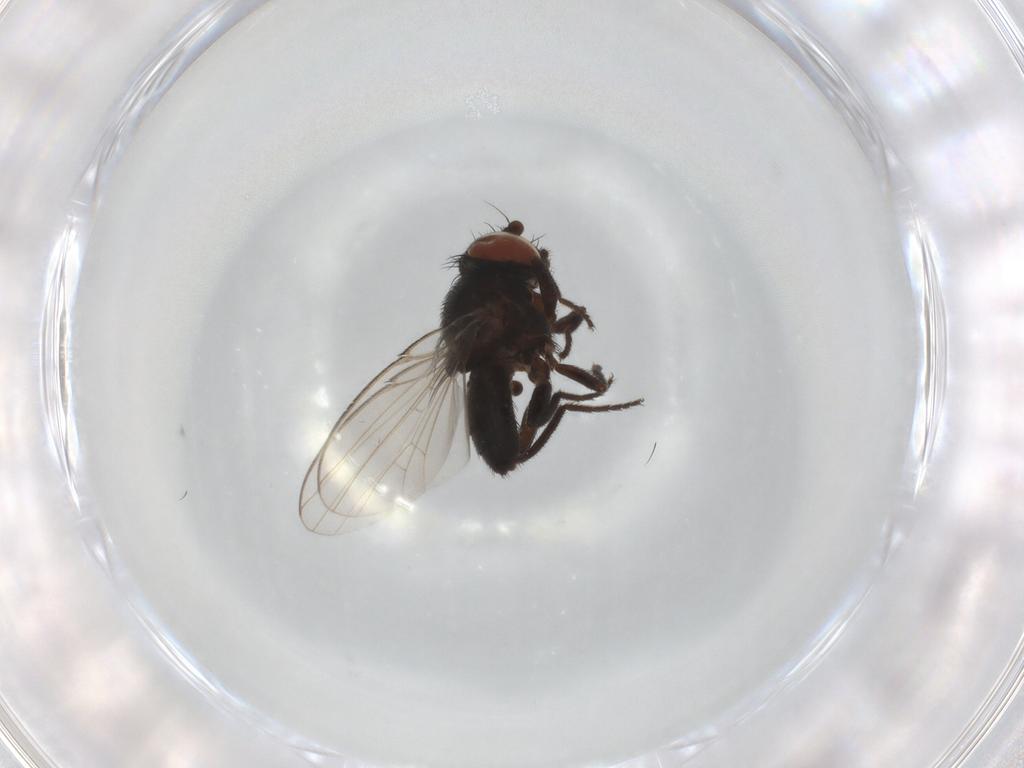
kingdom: Animalia
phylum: Arthropoda
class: Insecta
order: Diptera
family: Milichiidae
